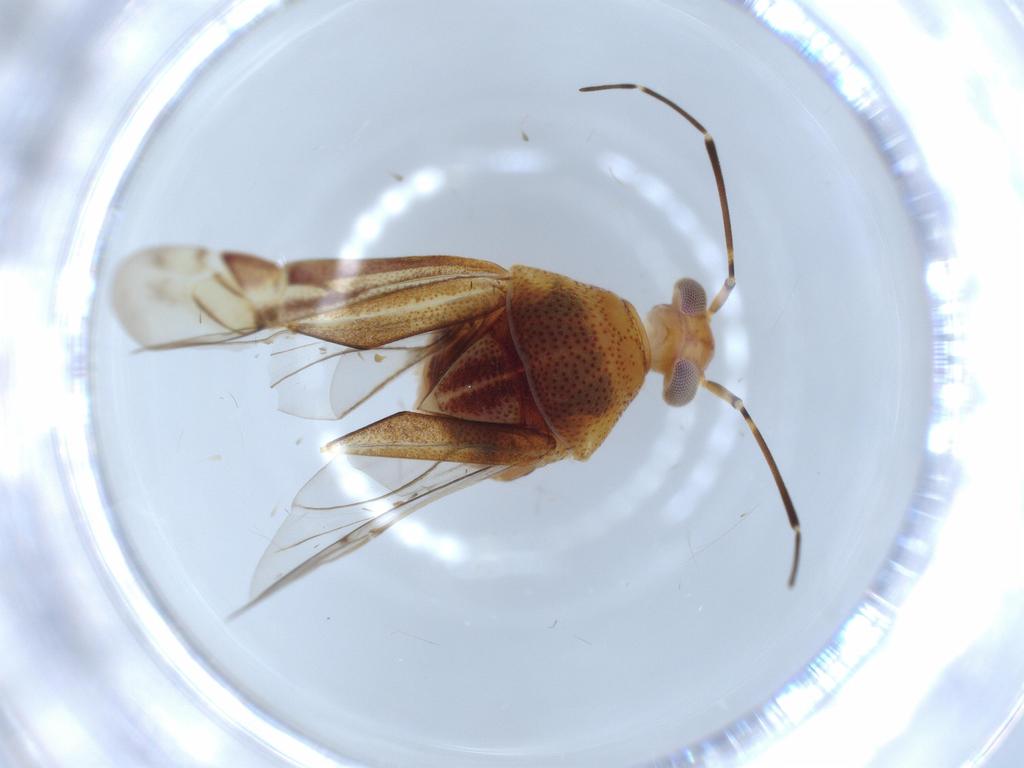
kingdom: Animalia
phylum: Arthropoda
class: Insecta
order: Hemiptera
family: Miridae
